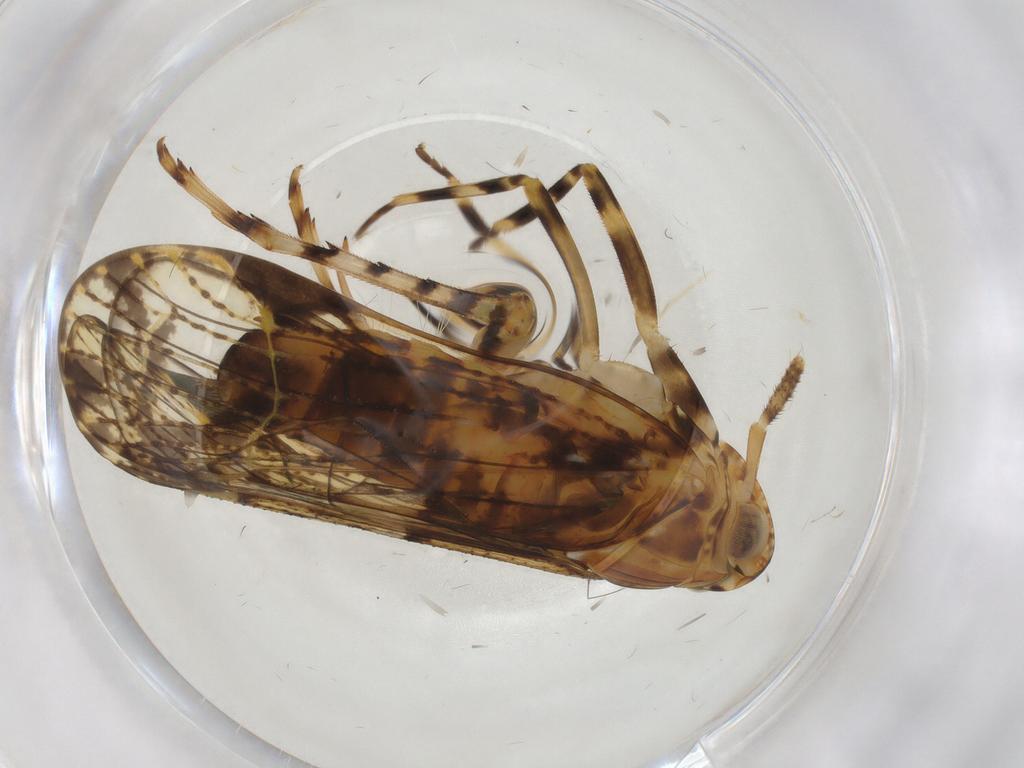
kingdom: Animalia
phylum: Arthropoda
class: Insecta
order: Hemiptera
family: Delphacidae
